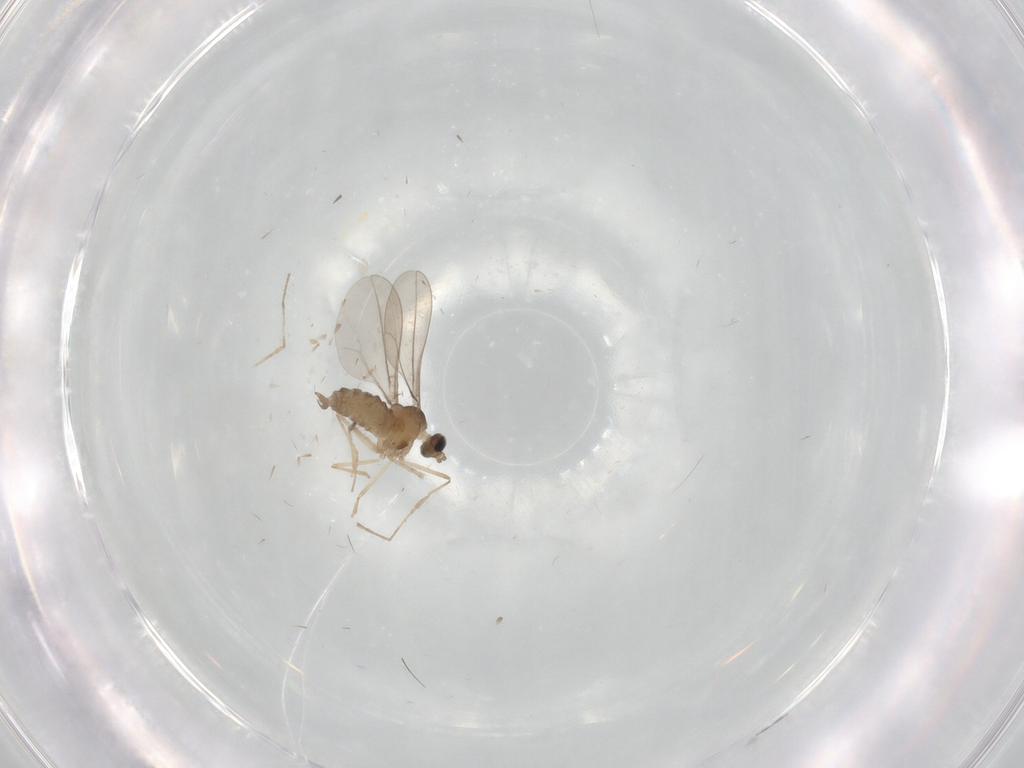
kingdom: Animalia
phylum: Arthropoda
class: Insecta
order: Diptera
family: Cecidomyiidae
